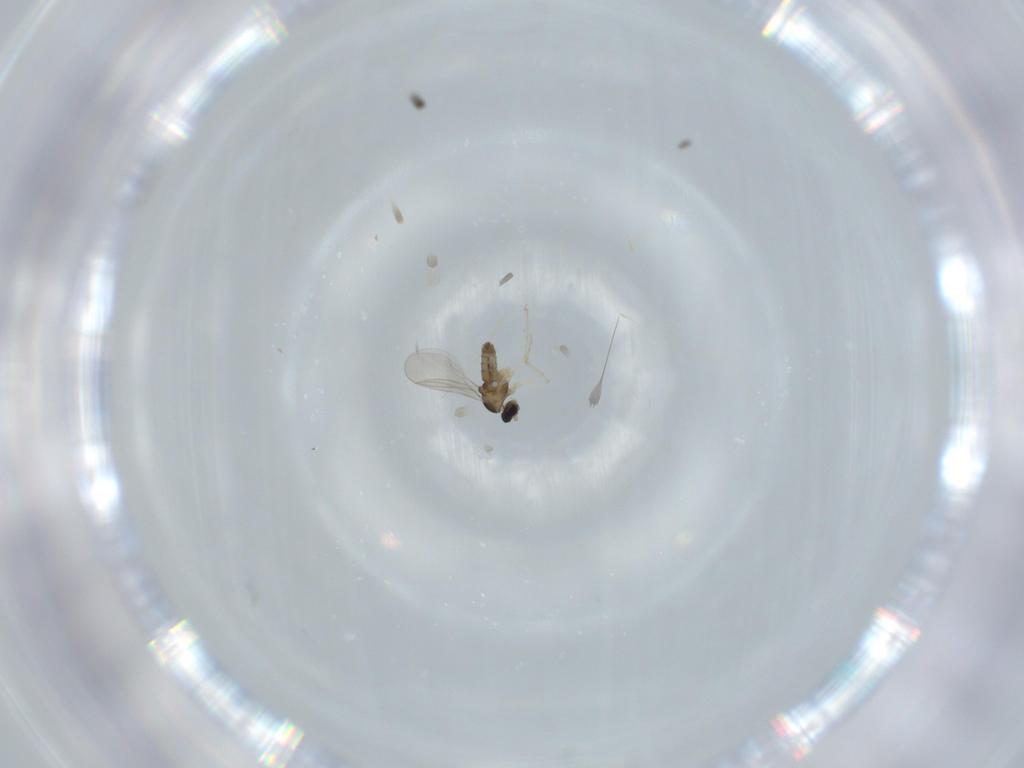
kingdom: Animalia
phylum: Arthropoda
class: Insecta
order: Diptera
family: Cecidomyiidae
